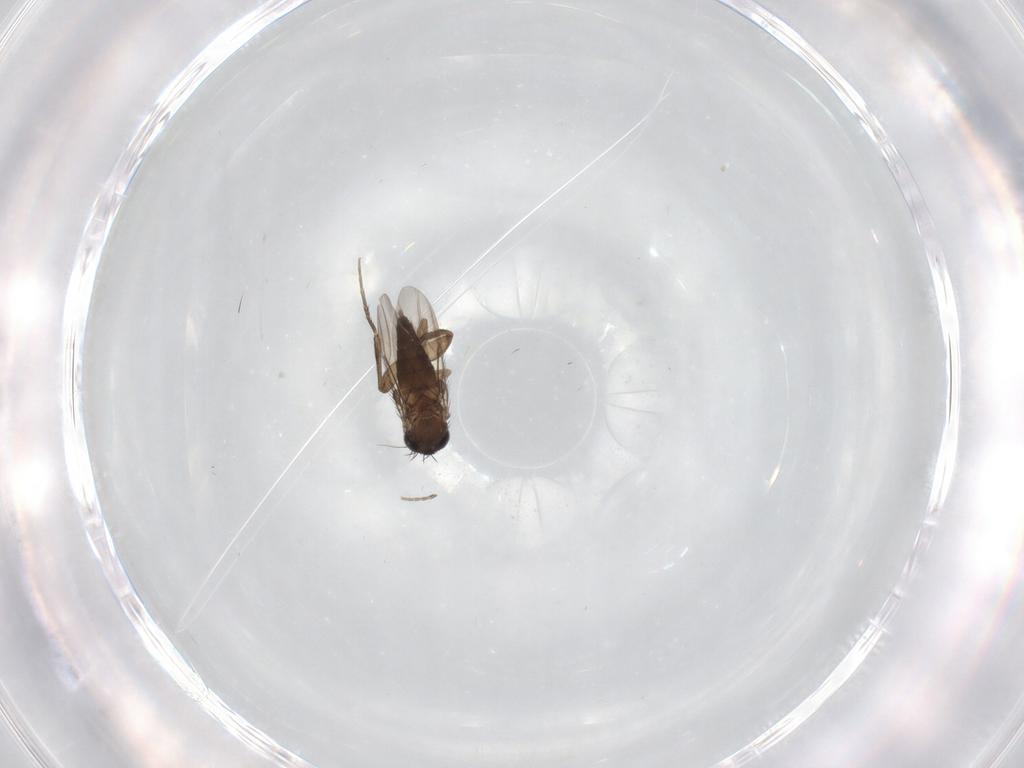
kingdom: Animalia
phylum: Arthropoda
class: Insecta
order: Diptera
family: Phoridae
